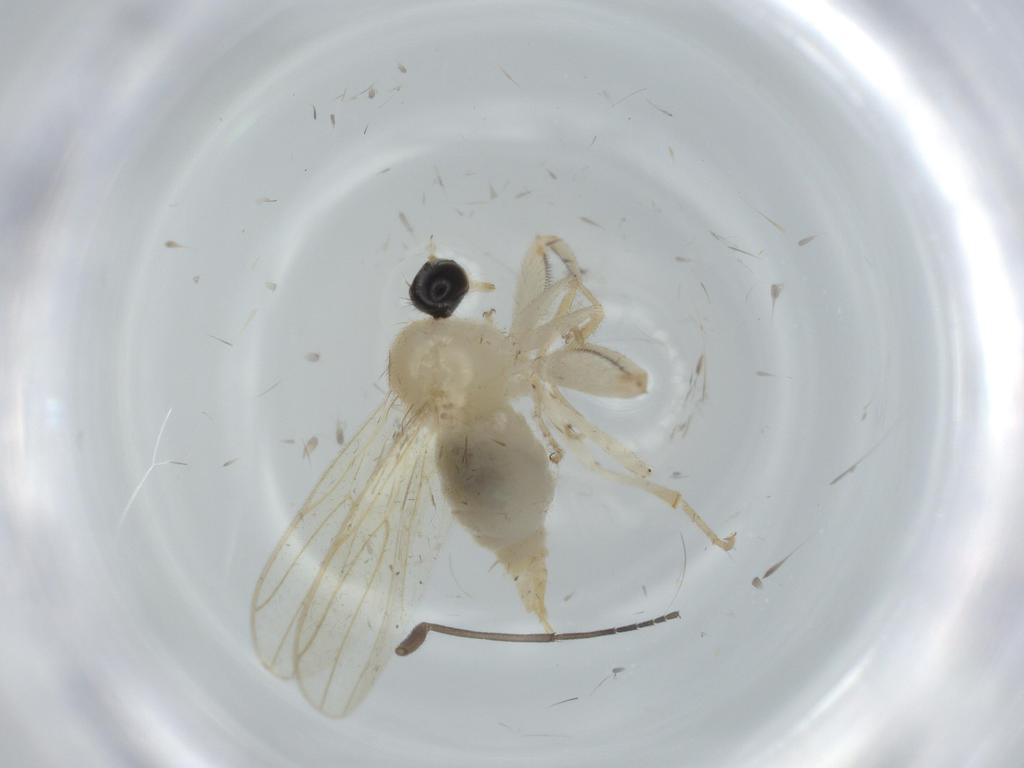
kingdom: Animalia
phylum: Arthropoda
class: Insecta
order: Diptera
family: Hybotidae
